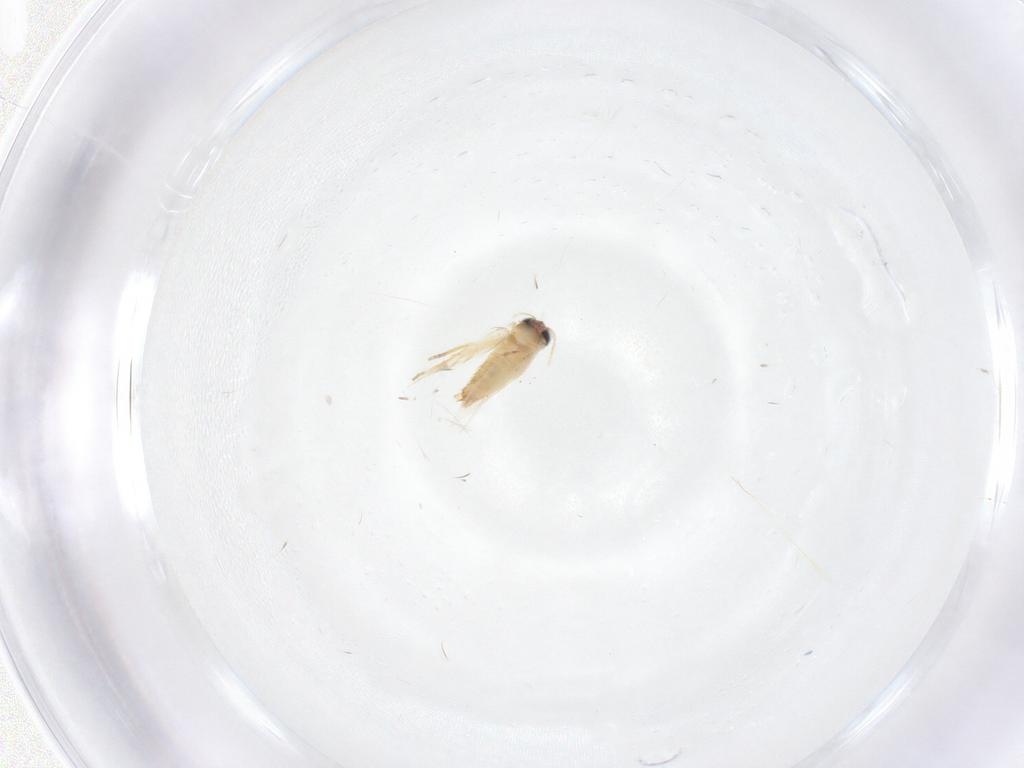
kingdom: Animalia
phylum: Arthropoda
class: Insecta
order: Lepidoptera
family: Crambidae
